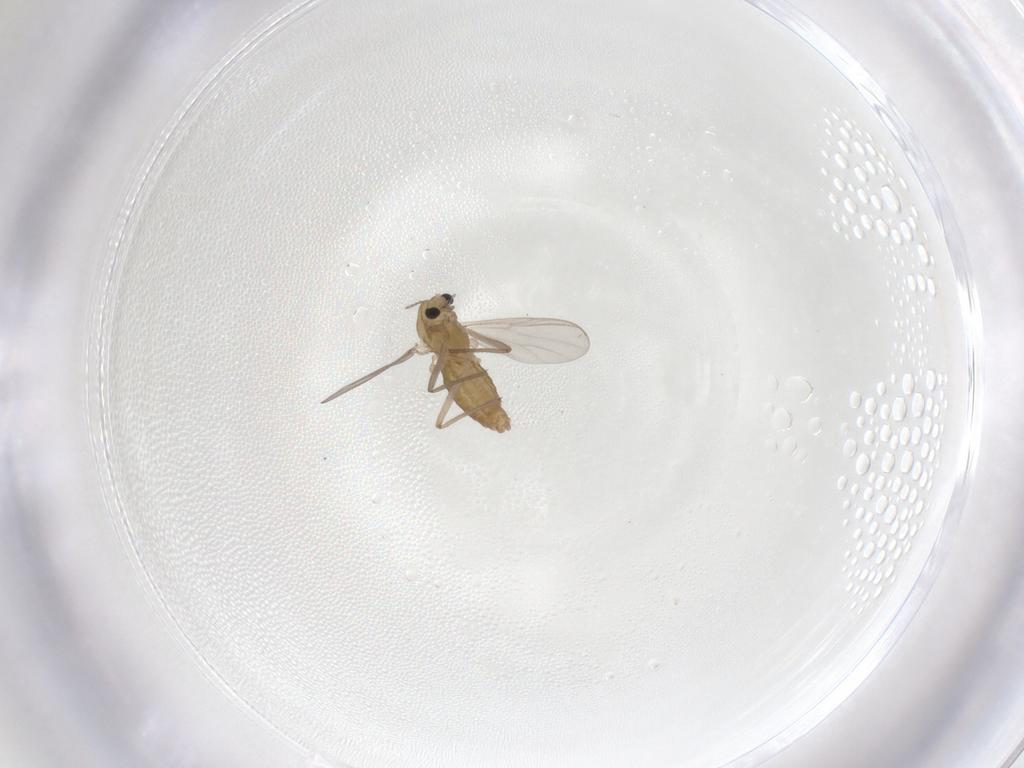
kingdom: Animalia
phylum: Arthropoda
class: Insecta
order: Diptera
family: Chironomidae
